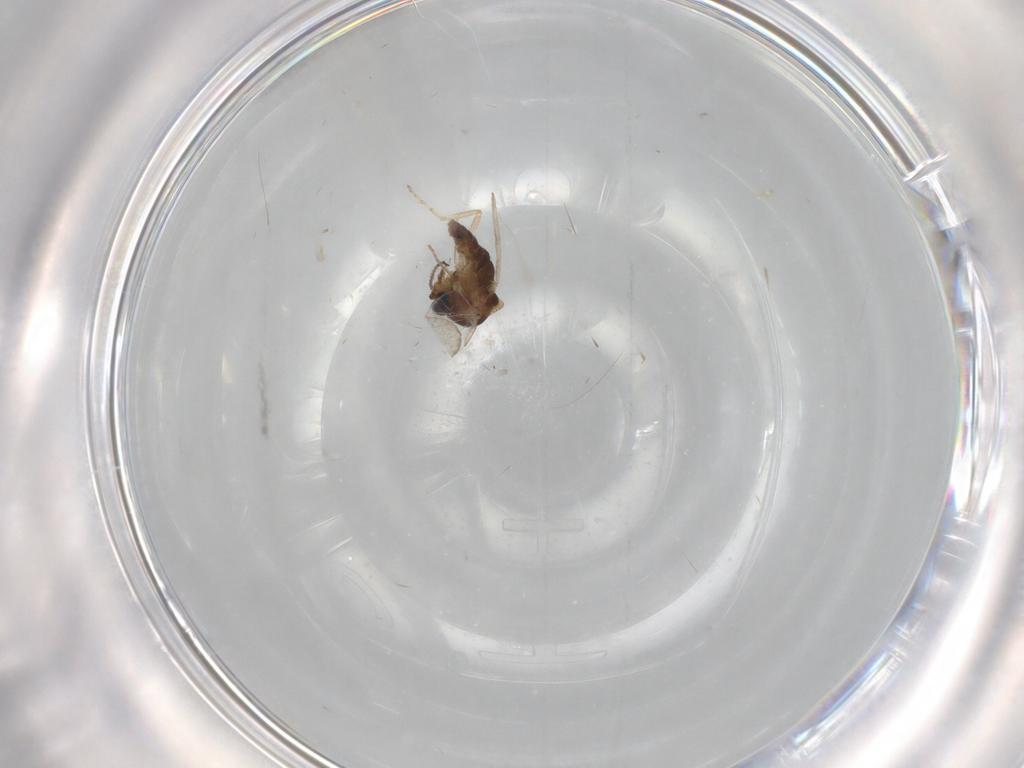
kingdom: Animalia
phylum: Arthropoda
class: Insecta
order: Diptera
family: Ceratopogonidae
